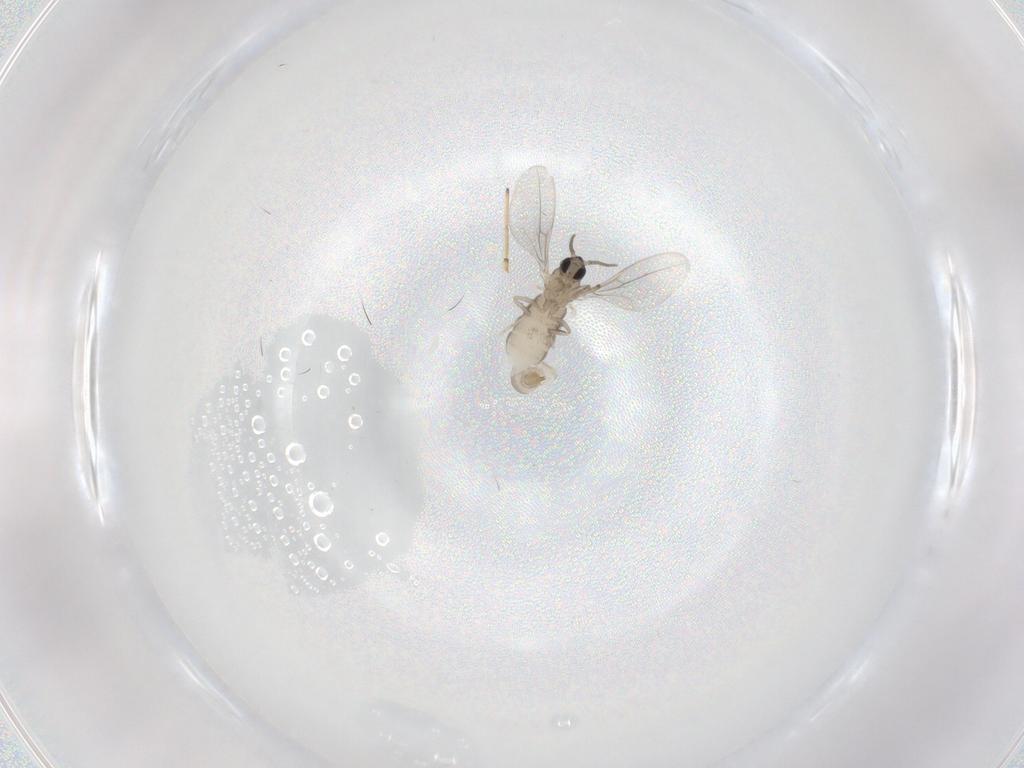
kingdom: Animalia
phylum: Arthropoda
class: Insecta
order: Diptera
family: Cecidomyiidae
